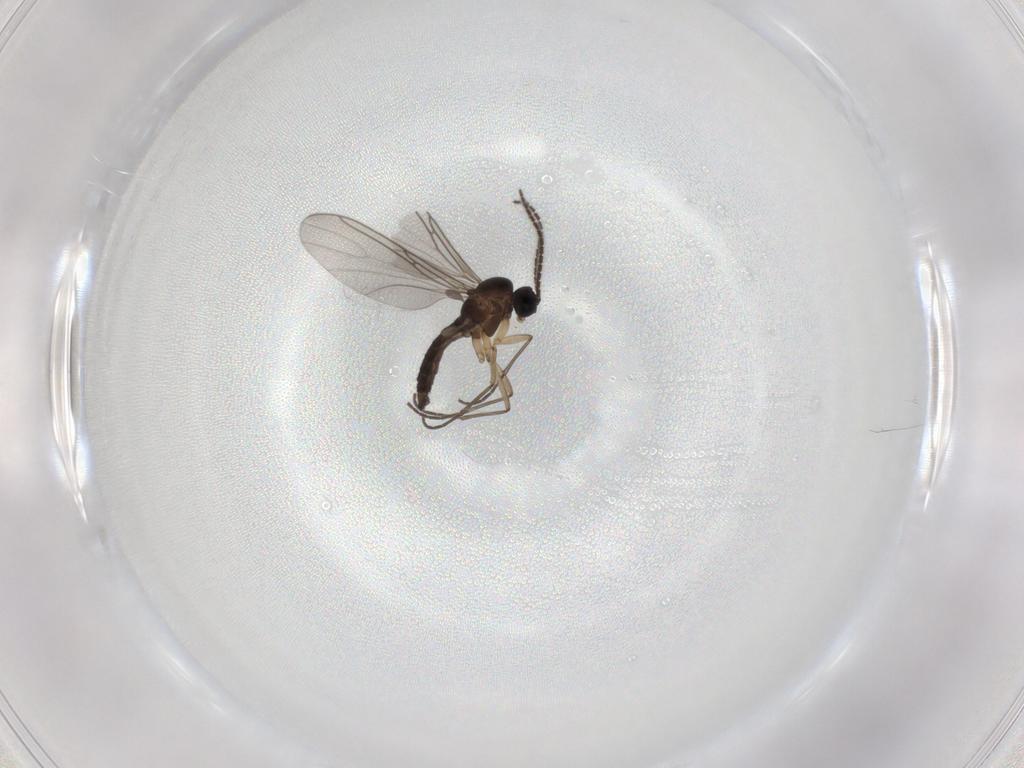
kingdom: Animalia
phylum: Arthropoda
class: Insecta
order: Diptera
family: Sciaridae
